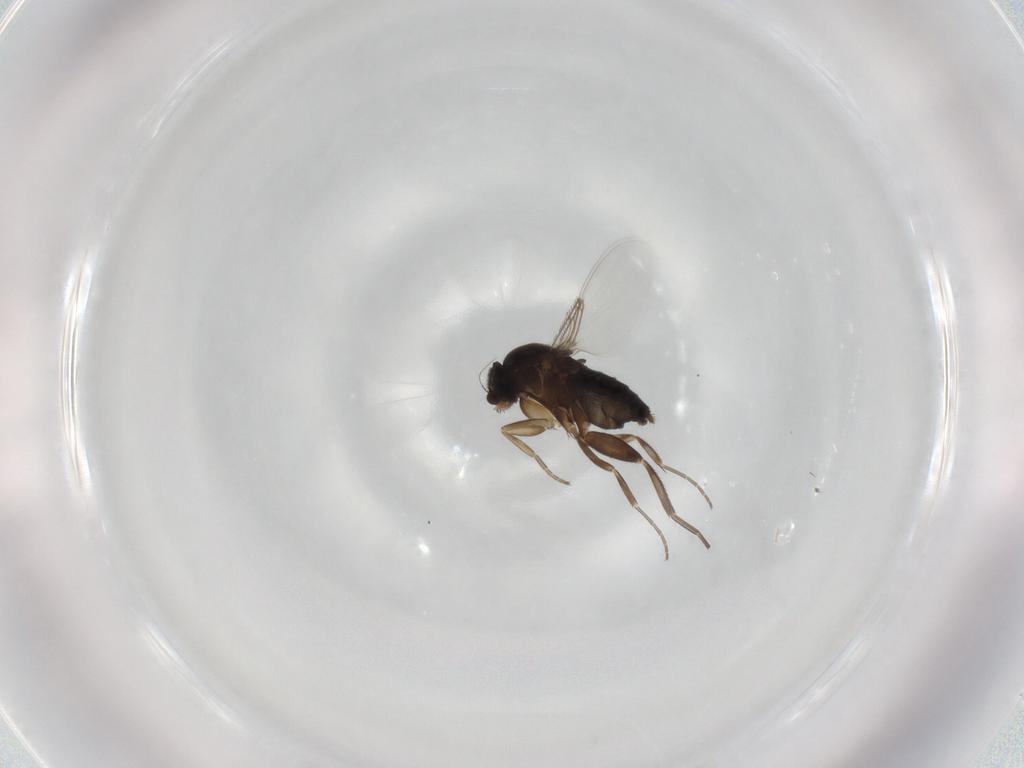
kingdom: Animalia
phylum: Arthropoda
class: Insecta
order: Diptera
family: Phoridae
